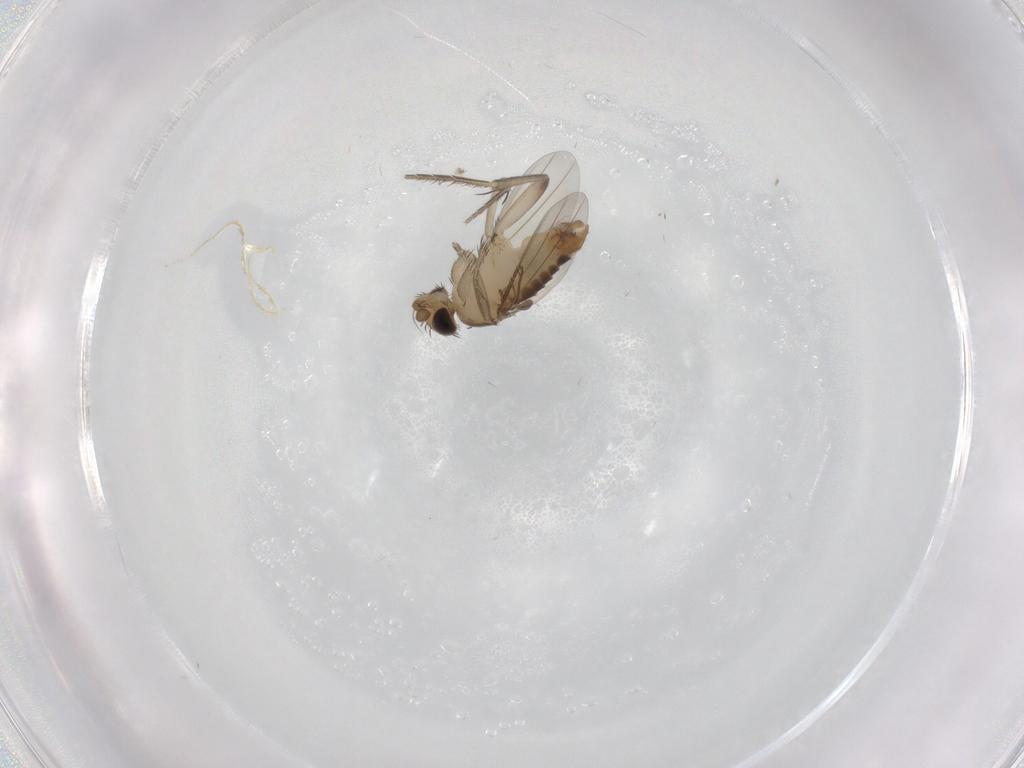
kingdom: Animalia
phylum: Arthropoda
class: Insecta
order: Diptera
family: Phoridae
